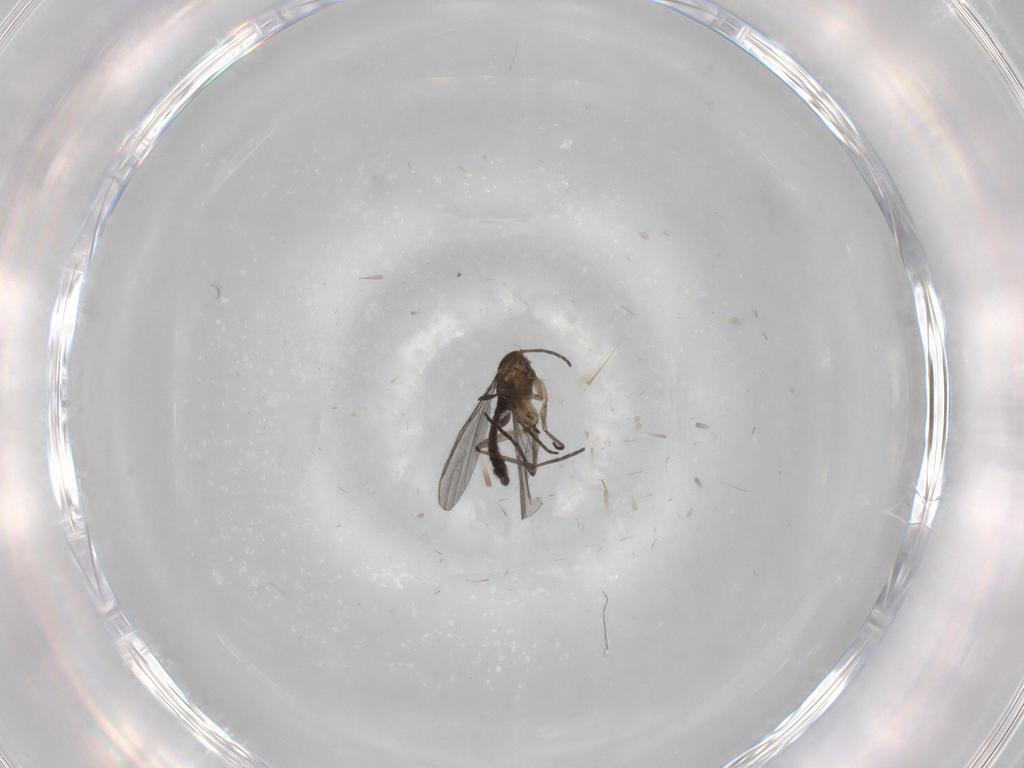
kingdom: Animalia
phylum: Arthropoda
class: Insecta
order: Diptera
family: Sciaridae
